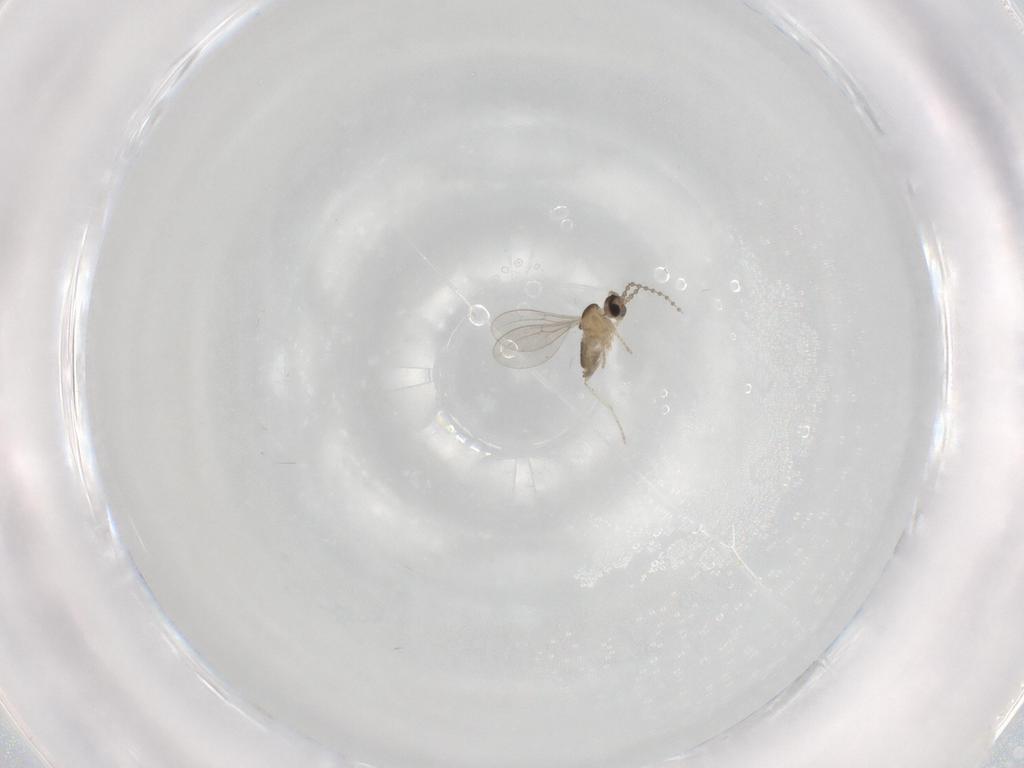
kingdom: Animalia
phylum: Arthropoda
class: Insecta
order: Diptera
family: Cecidomyiidae
